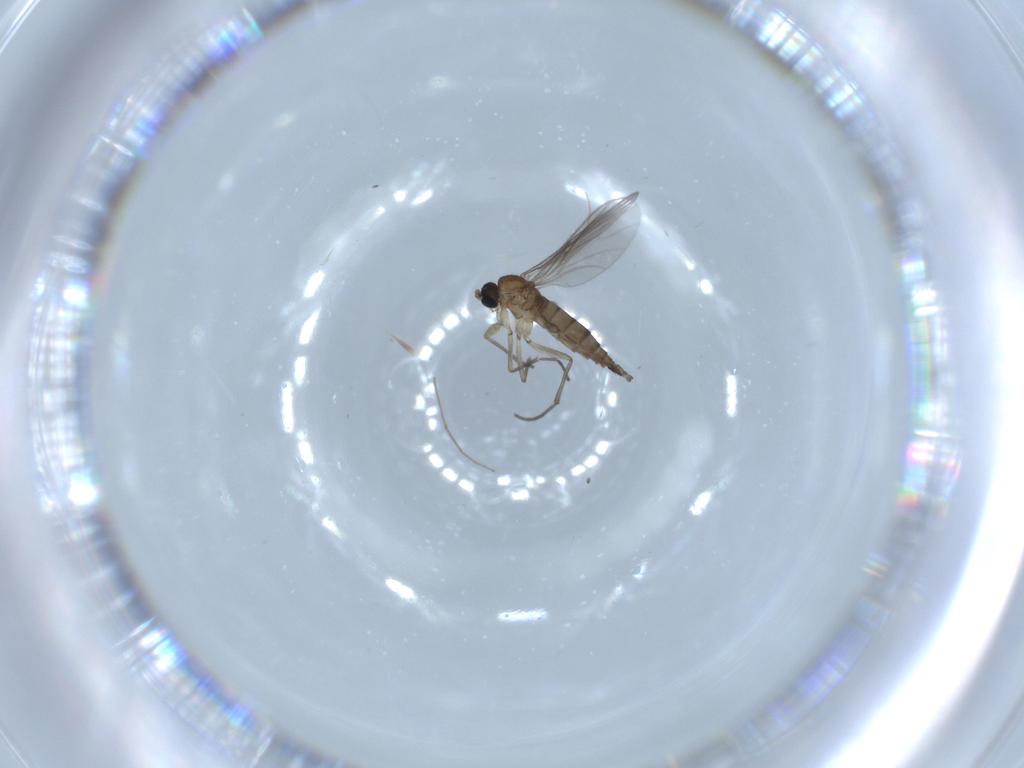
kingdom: Animalia
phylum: Arthropoda
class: Insecta
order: Diptera
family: Sciaridae
